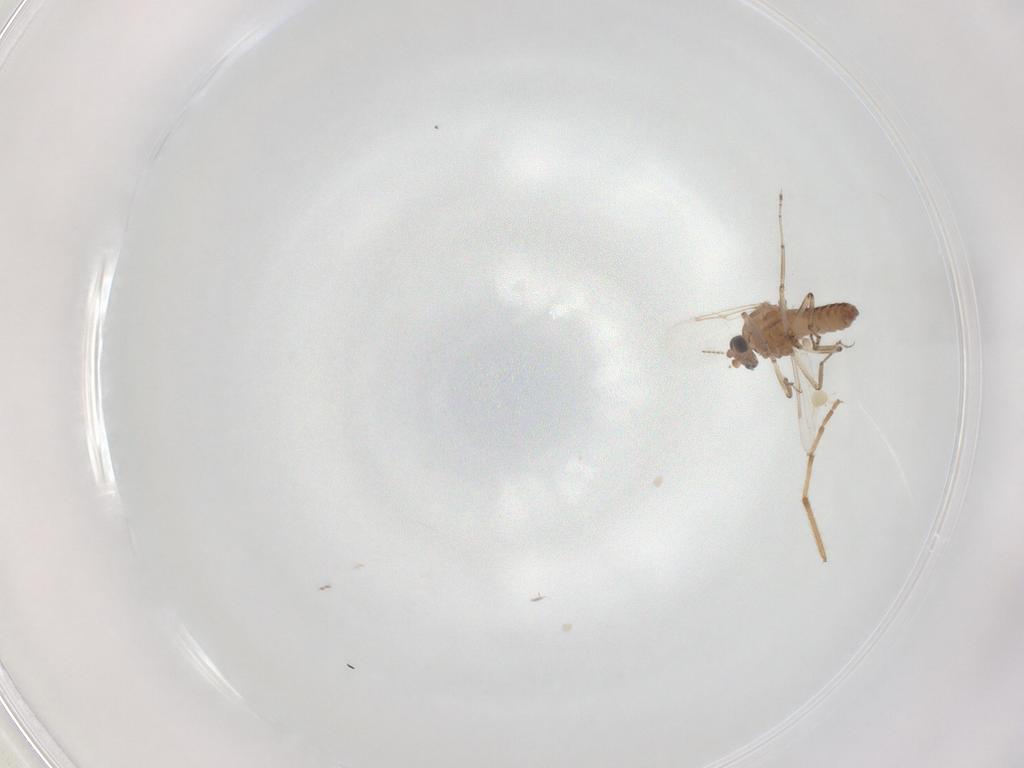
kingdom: Animalia
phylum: Arthropoda
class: Insecta
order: Diptera
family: Ceratopogonidae
